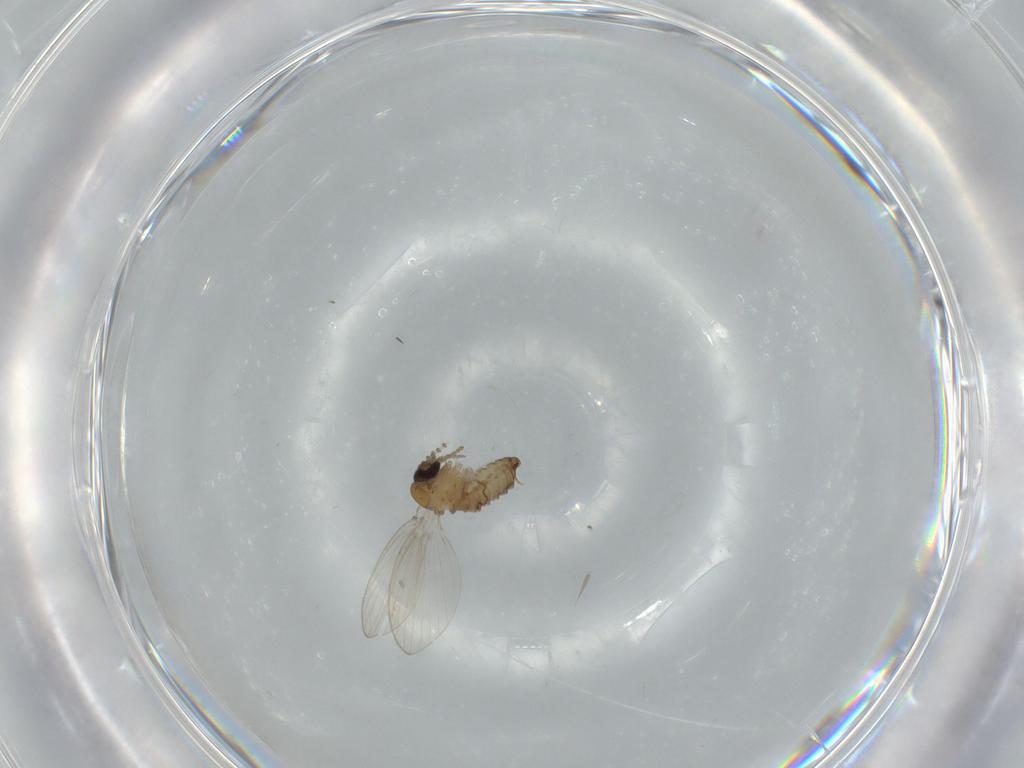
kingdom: Animalia
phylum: Arthropoda
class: Insecta
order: Diptera
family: Psychodidae
